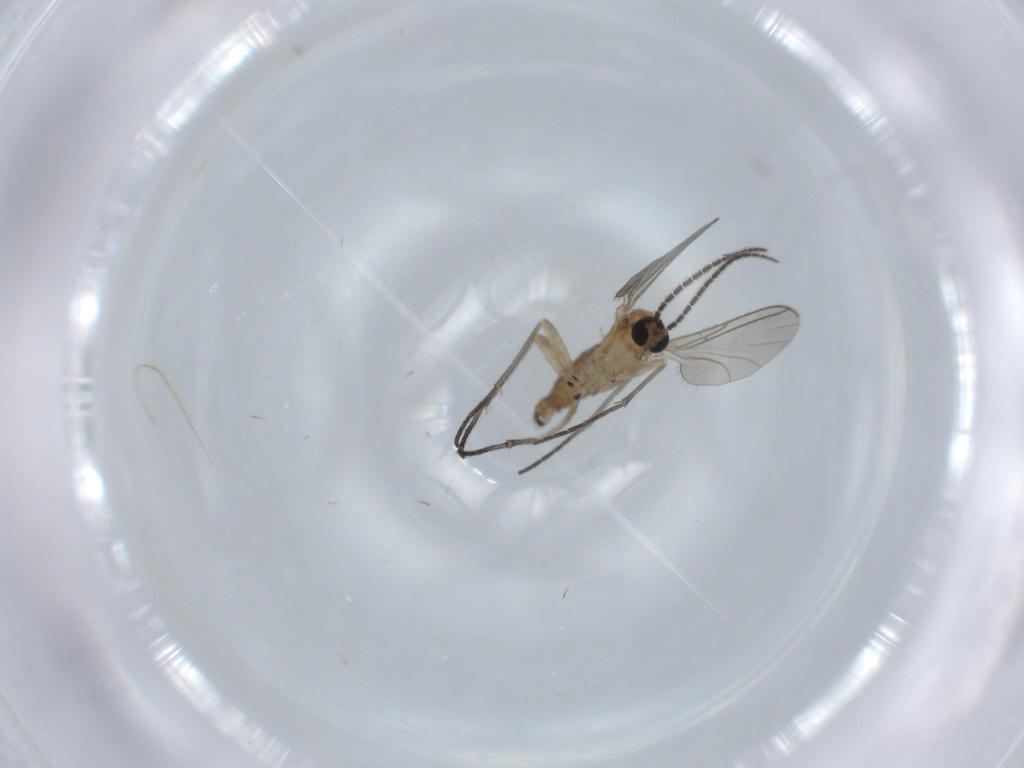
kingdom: Animalia
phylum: Arthropoda
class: Insecta
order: Diptera
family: Sciaridae
